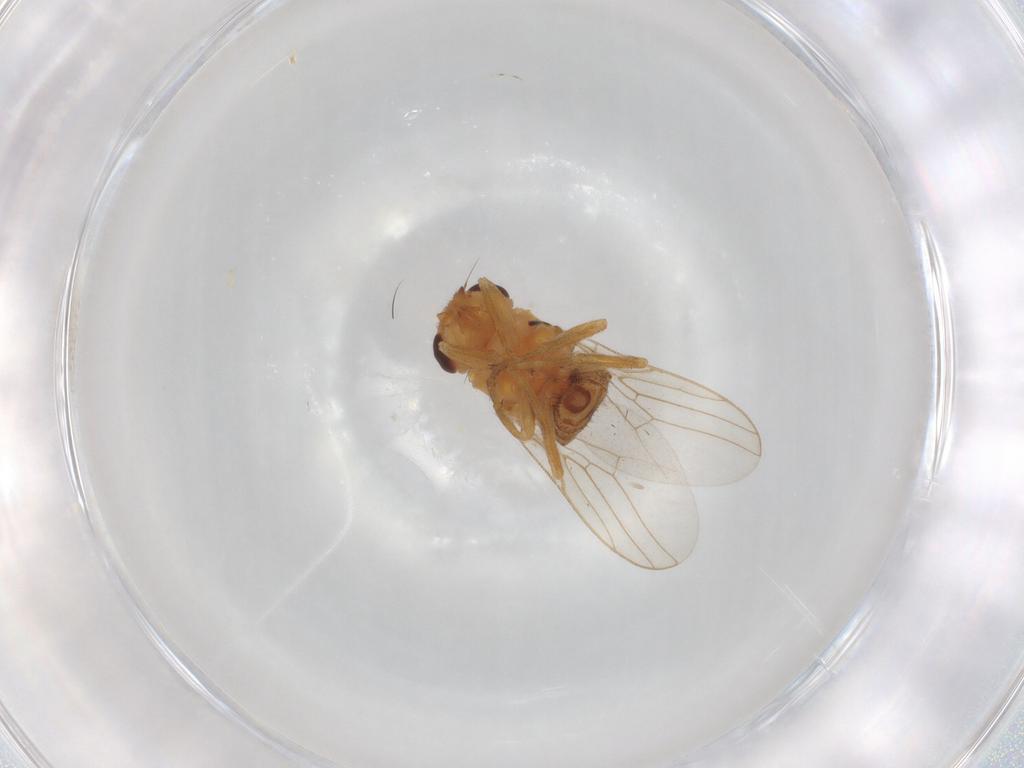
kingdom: Animalia
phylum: Arthropoda
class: Insecta
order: Diptera
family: Chloropidae
